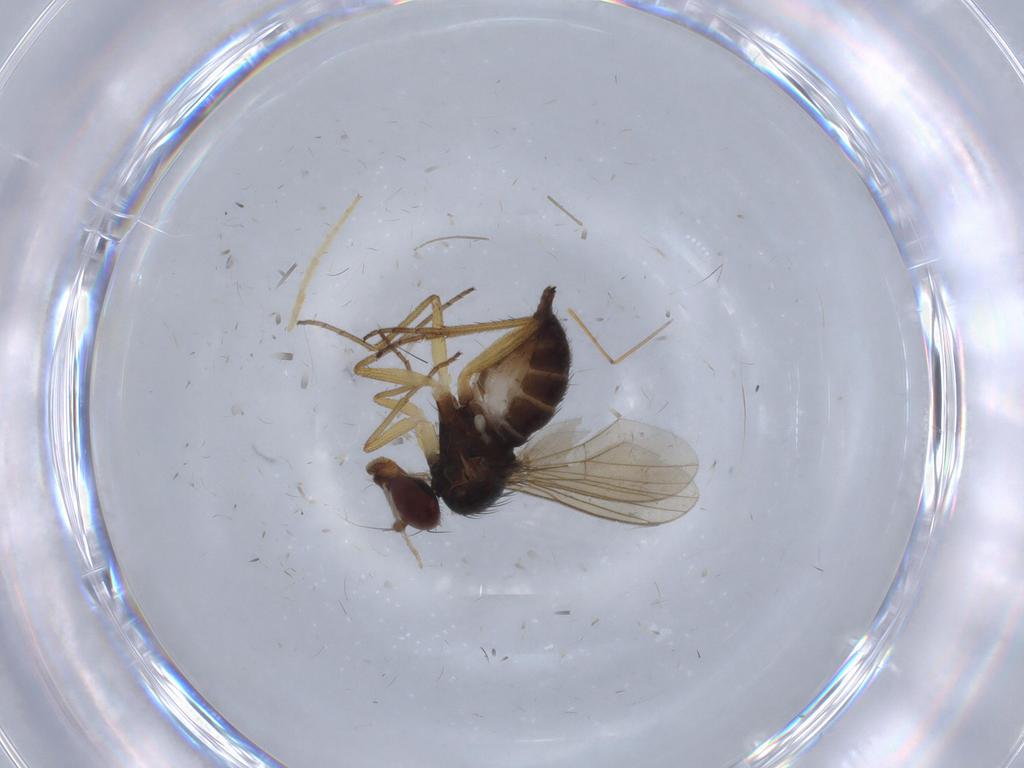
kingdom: Animalia
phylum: Arthropoda
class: Insecta
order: Diptera
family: Dolichopodidae
